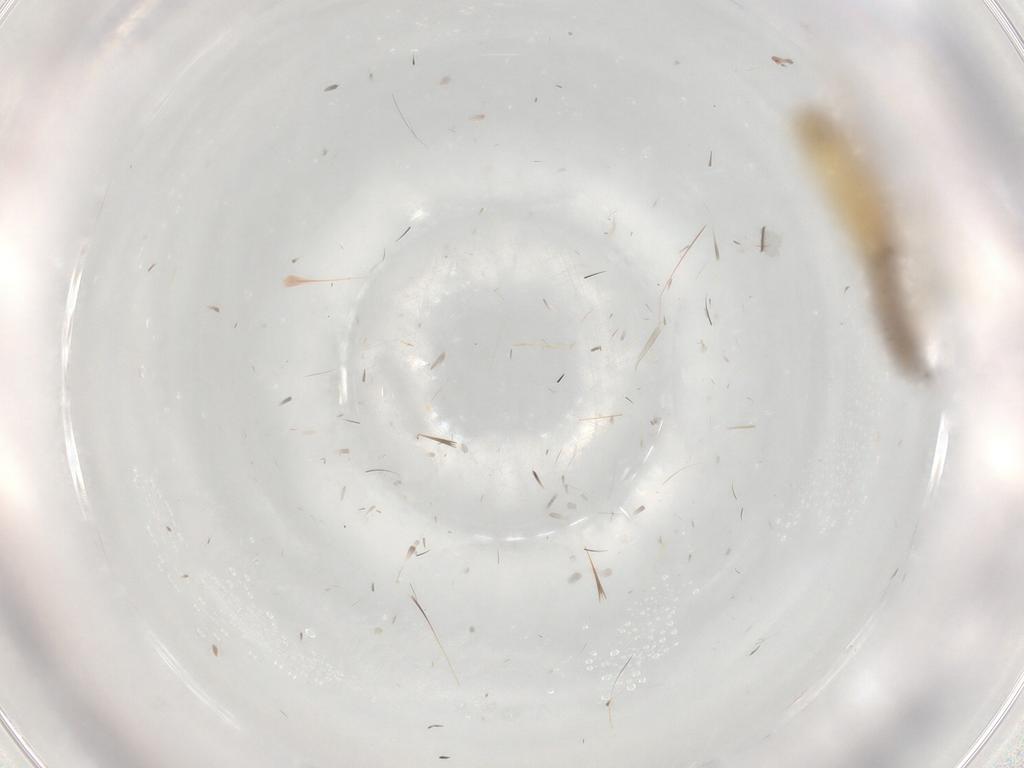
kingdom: Animalia
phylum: Arthropoda
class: Insecta
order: Lepidoptera
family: Gracillariidae
